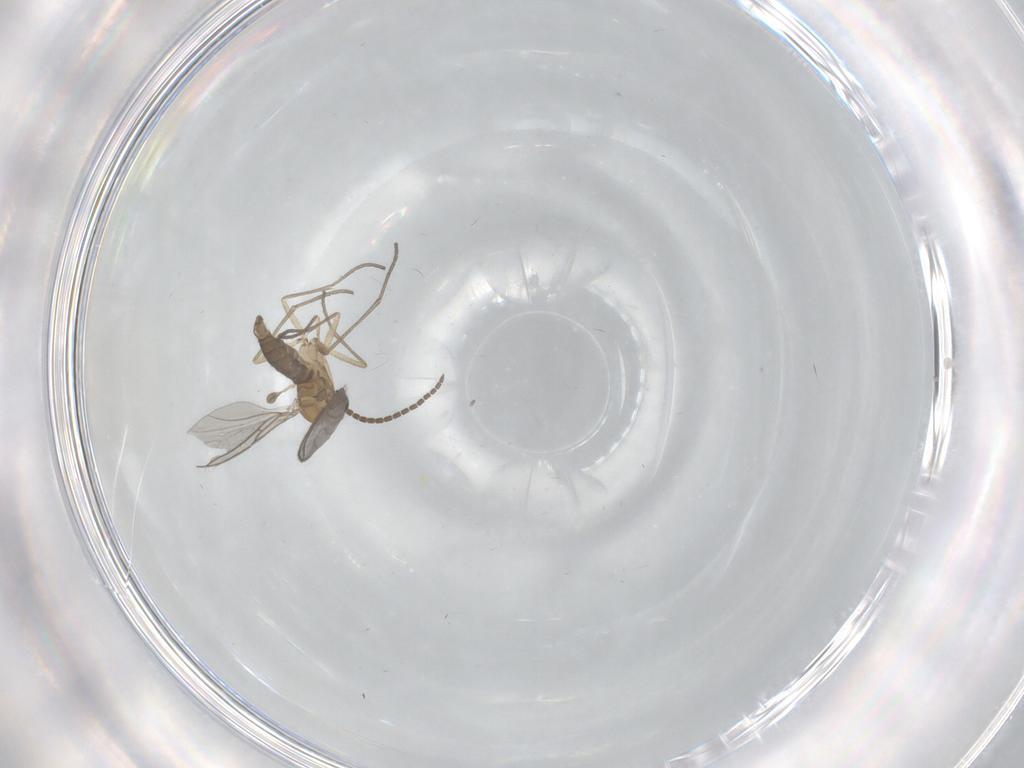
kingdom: Animalia
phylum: Arthropoda
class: Insecta
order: Diptera
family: Sciaridae
